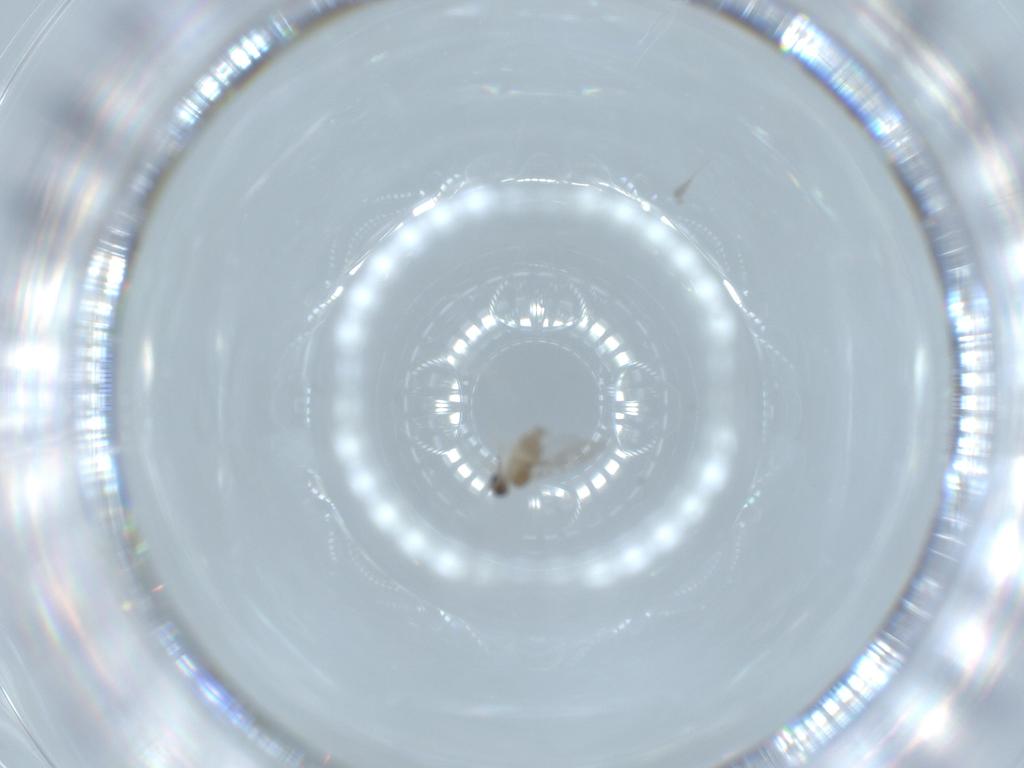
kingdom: Animalia
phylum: Arthropoda
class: Insecta
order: Diptera
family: Cecidomyiidae
